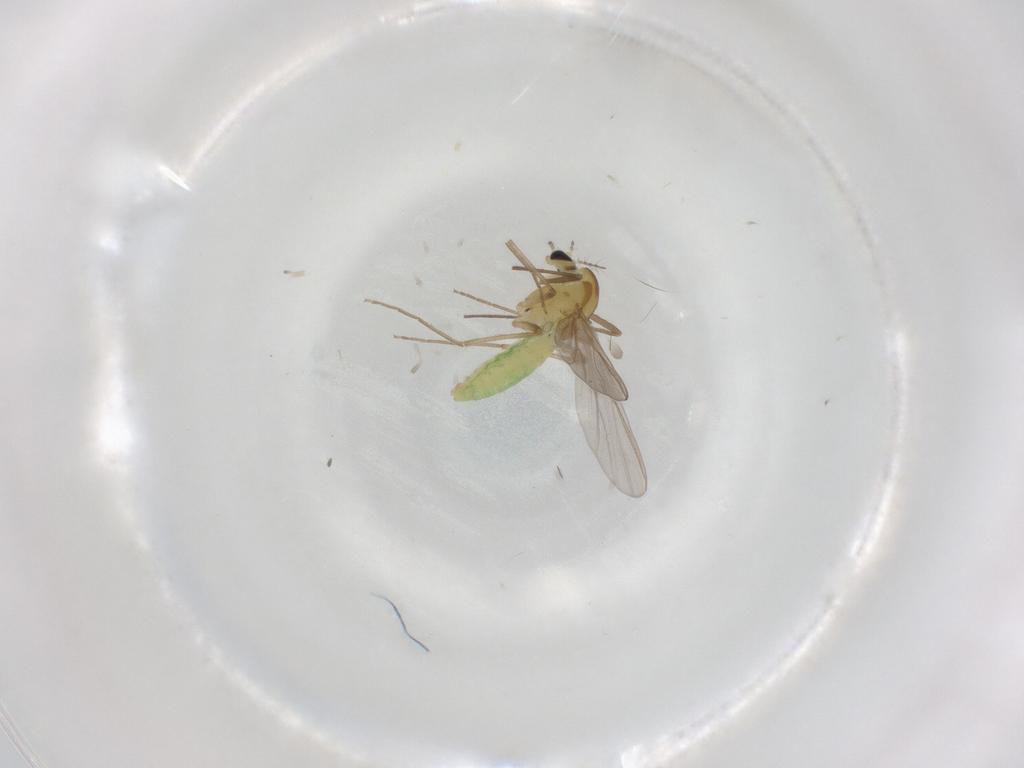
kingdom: Animalia
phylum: Arthropoda
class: Insecta
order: Diptera
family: Chironomidae
